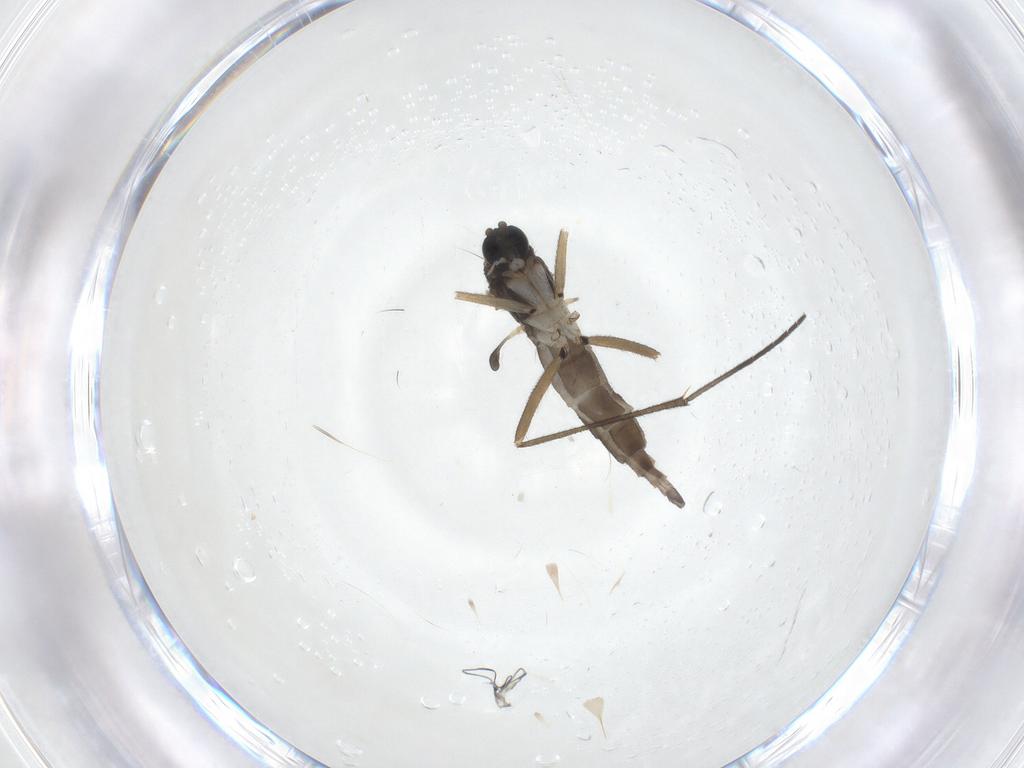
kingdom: Animalia
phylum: Arthropoda
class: Insecta
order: Diptera
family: Sciaridae
